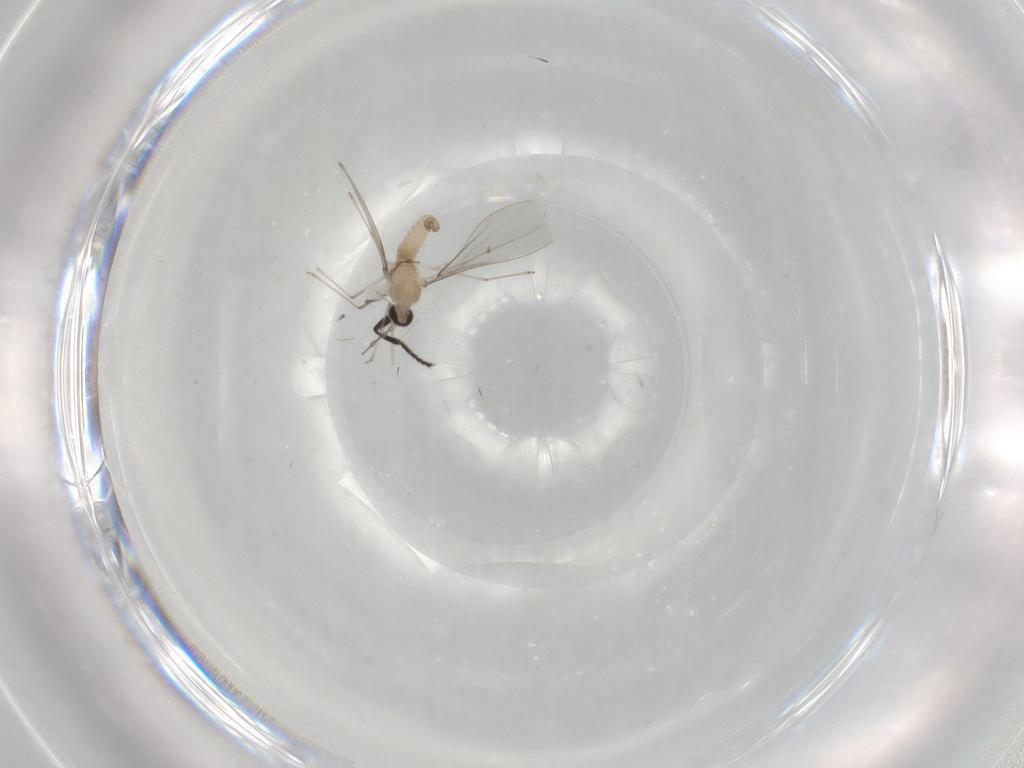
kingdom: Animalia
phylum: Arthropoda
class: Insecta
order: Diptera
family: Cecidomyiidae
